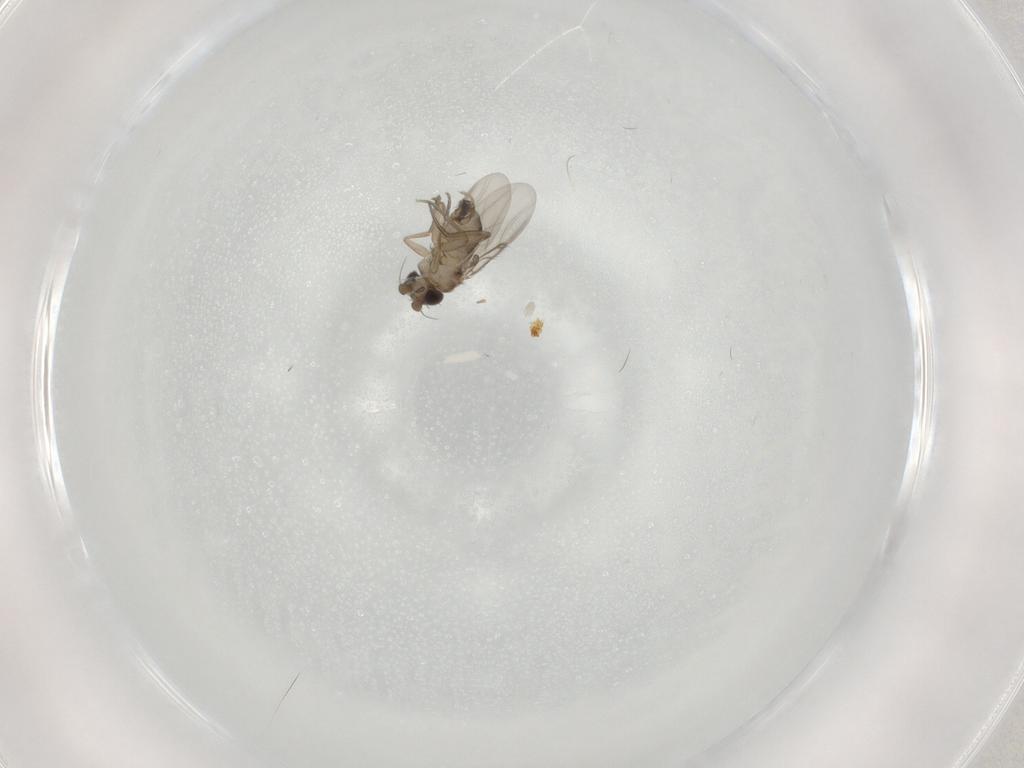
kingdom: Animalia
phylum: Arthropoda
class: Insecta
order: Diptera
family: Phoridae
